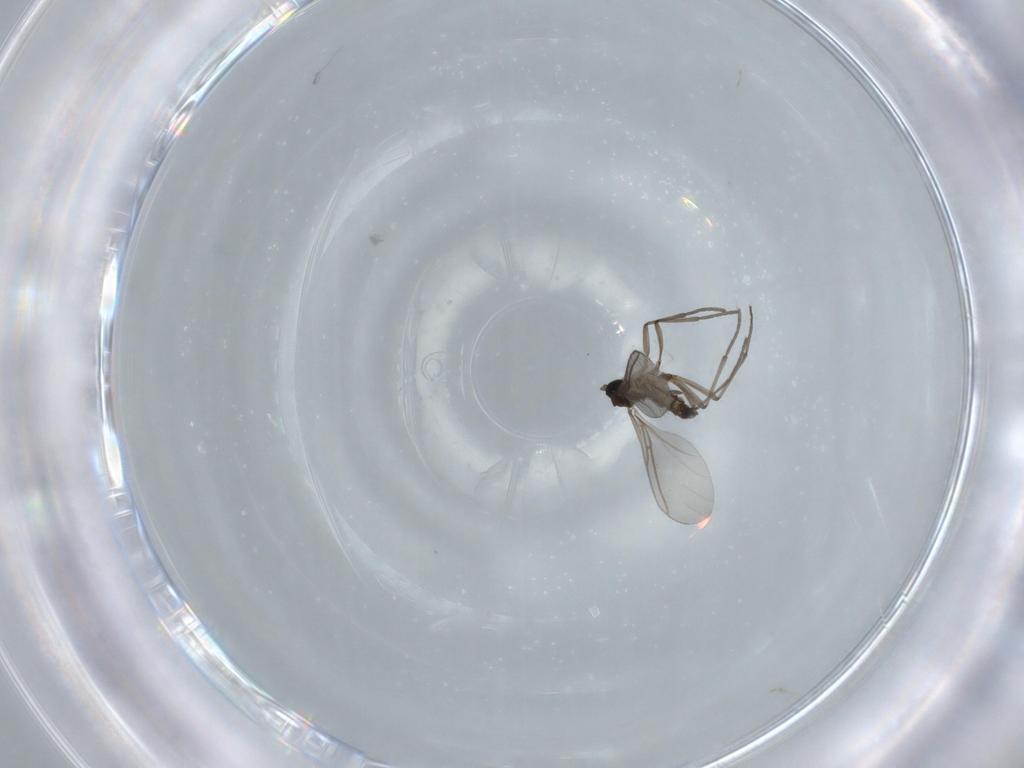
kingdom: Animalia
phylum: Arthropoda
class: Insecta
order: Diptera
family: Sciaridae
